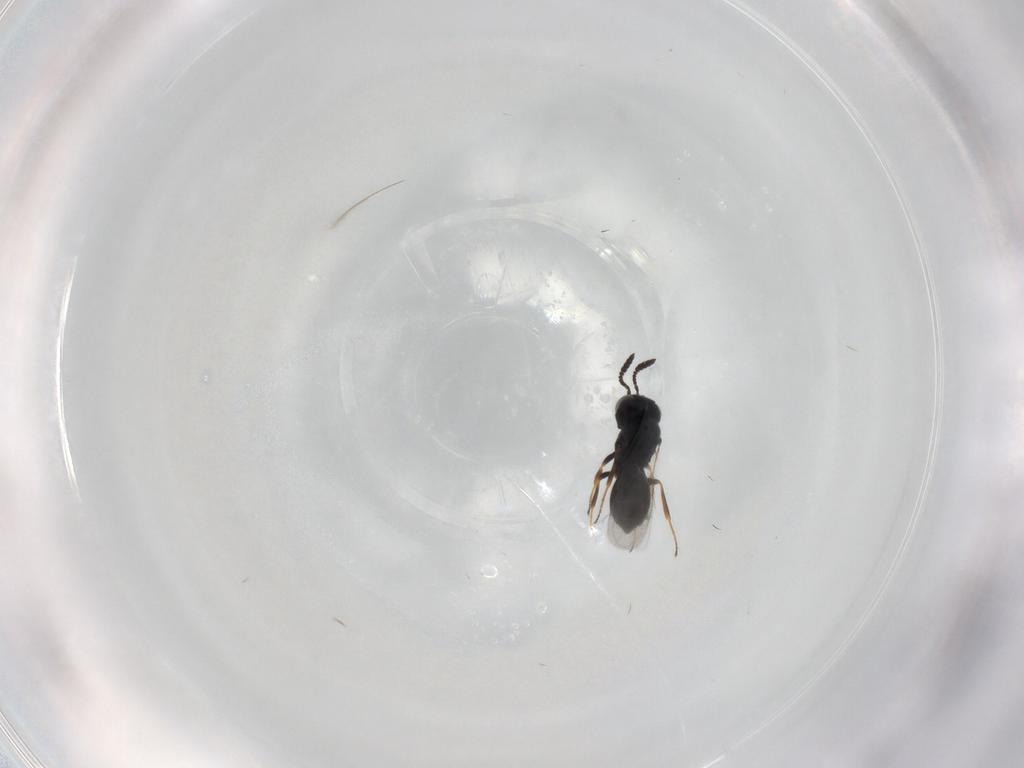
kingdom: Animalia
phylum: Arthropoda
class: Insecta
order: Hymenoptera
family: Scelionidae
